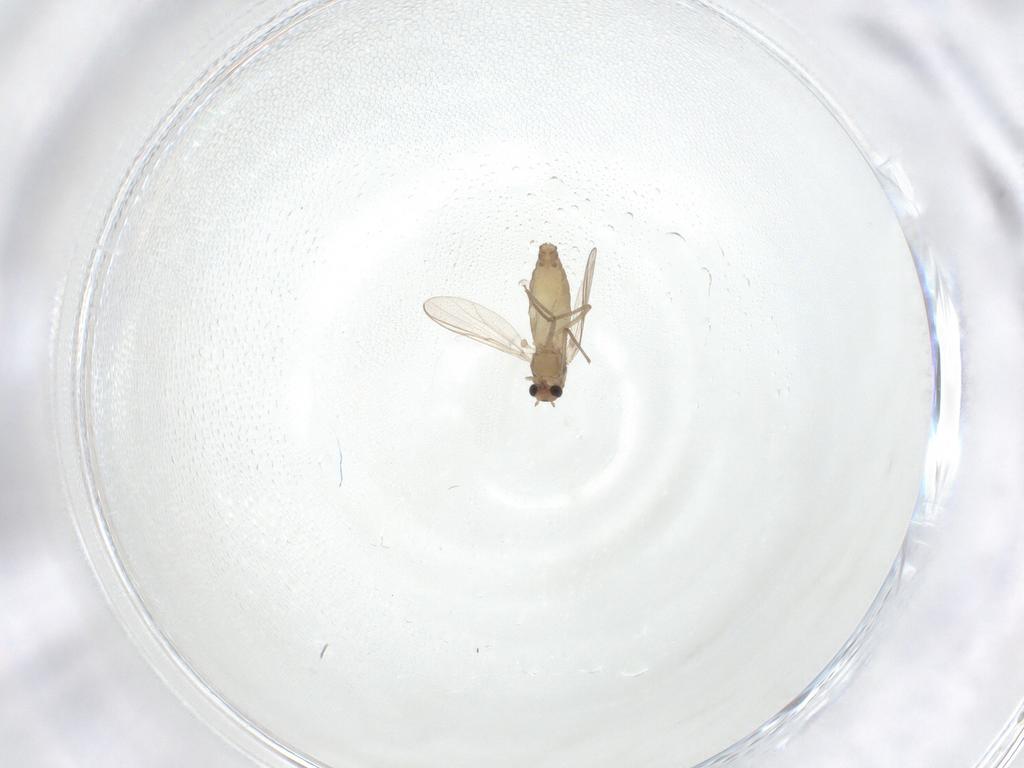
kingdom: Animalia
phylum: Arthropoda
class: Insecta
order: Diptera
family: Chironomidae
